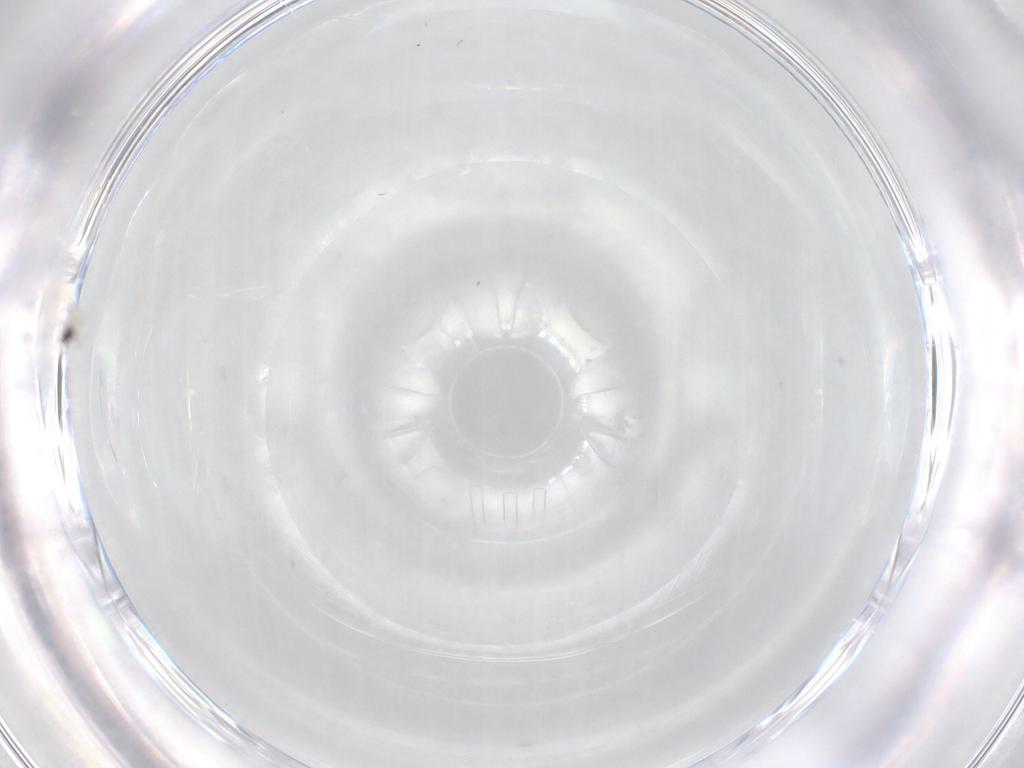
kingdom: Animalia
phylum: Arthropoda
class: Insecta
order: Diptera
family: Cecidomyiidae
